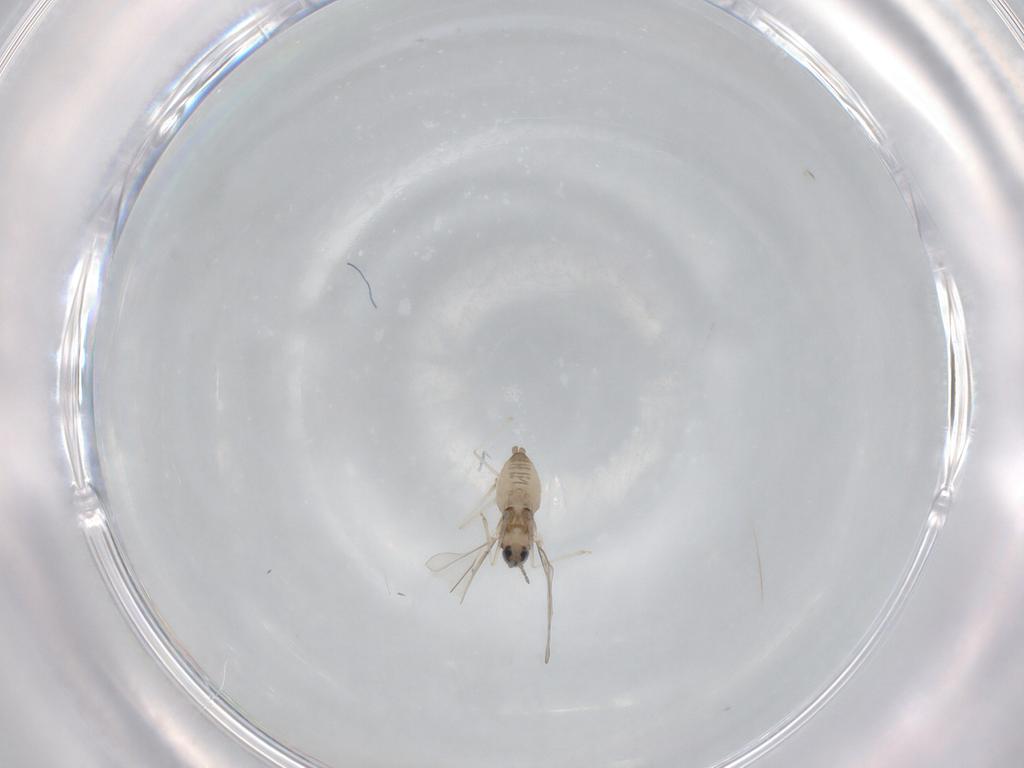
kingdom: Animalia
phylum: Arthropoda
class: Insecta
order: Diptera
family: Cecidomyiidae
